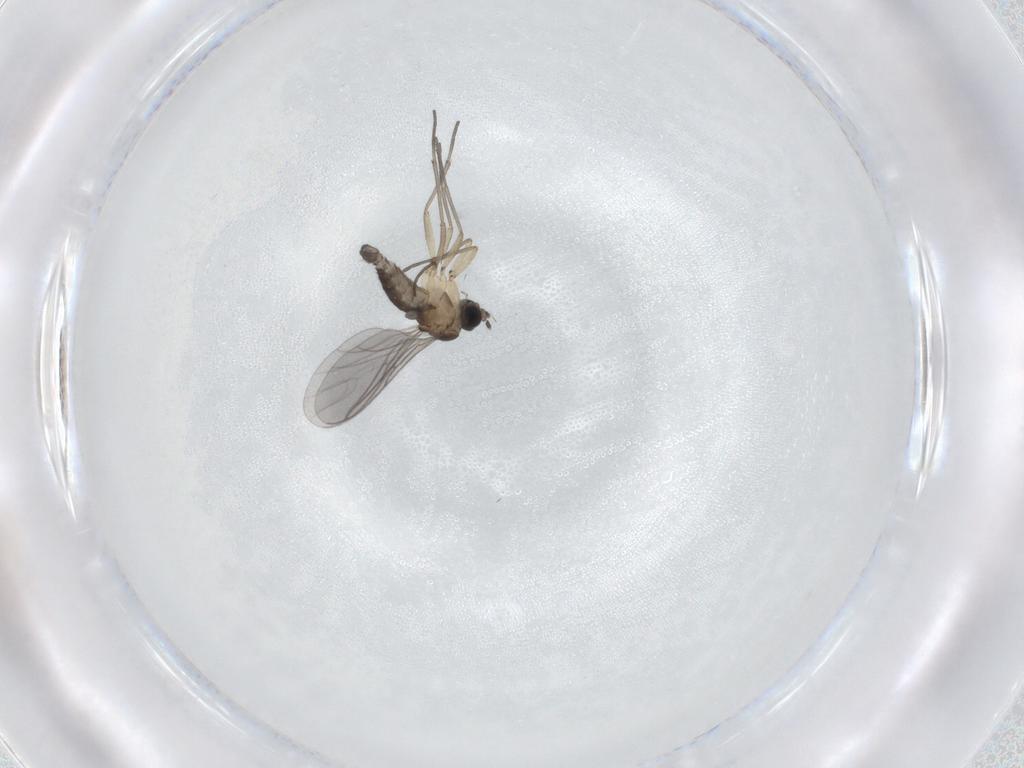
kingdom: Animalia
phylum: Arthropoda
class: Insecta
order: Diptera
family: Sciaridae
